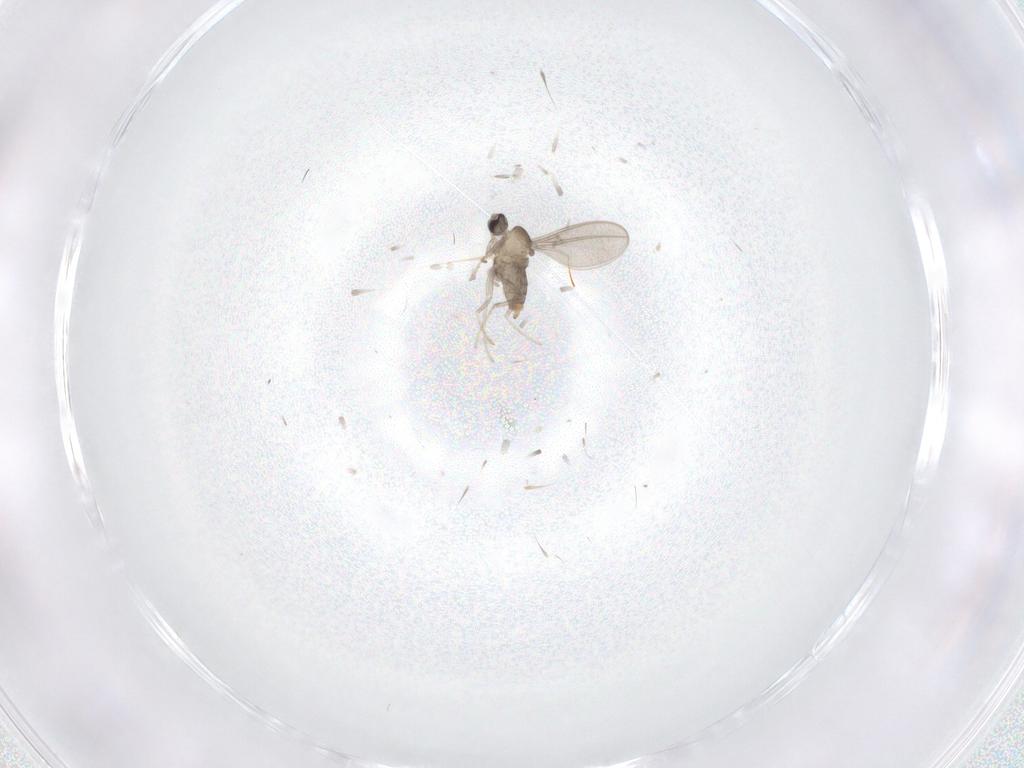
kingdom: Animalia
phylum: Arthropoda
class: Insecta
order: Diptera
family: Cecidomyiidae
